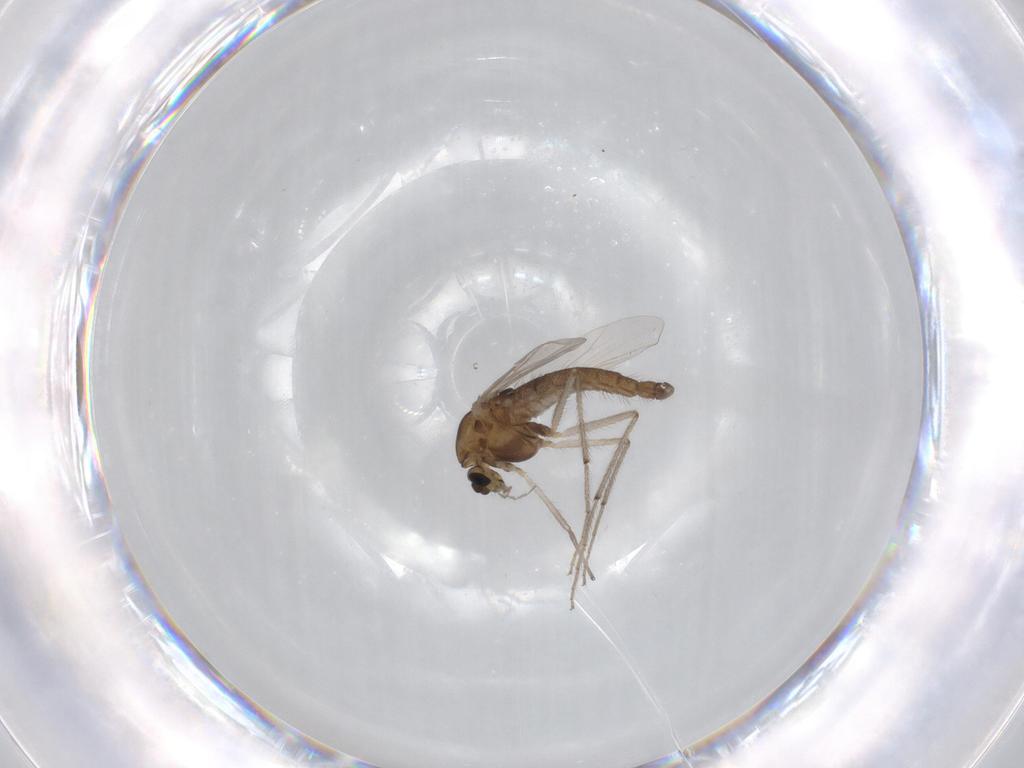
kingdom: Animalia
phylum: Arthropoda
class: Insecta
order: Diptera
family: Chironomidae
